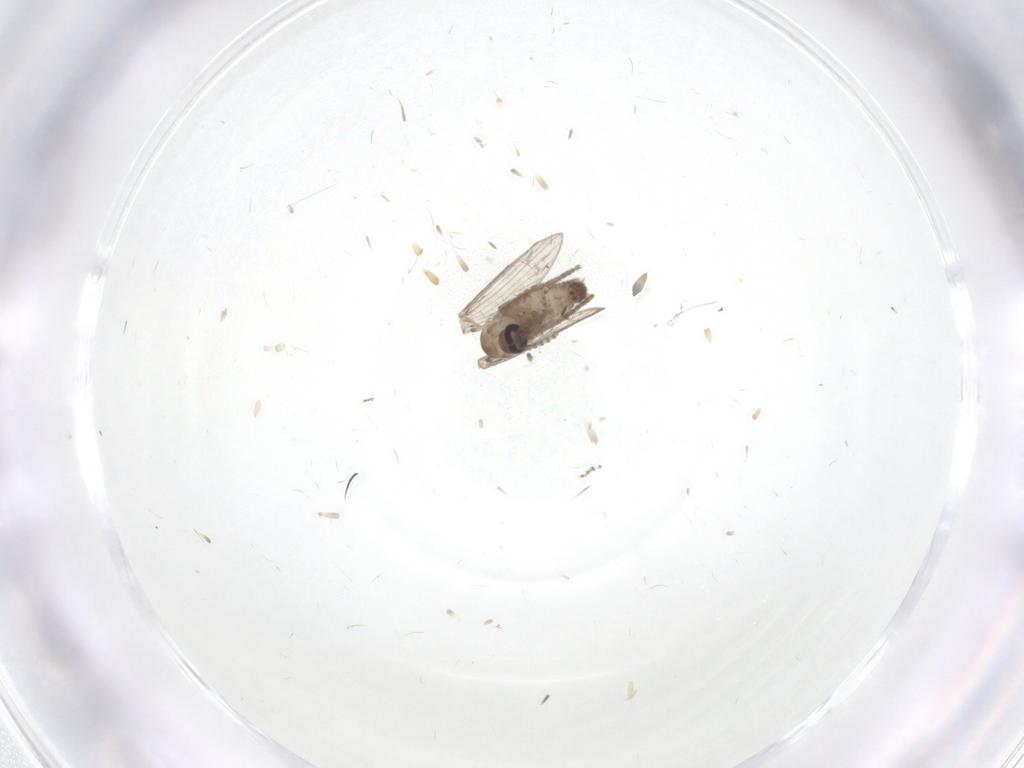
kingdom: Animalia
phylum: Arthropoda
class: Insecta
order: Diptera
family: Psychodidae
